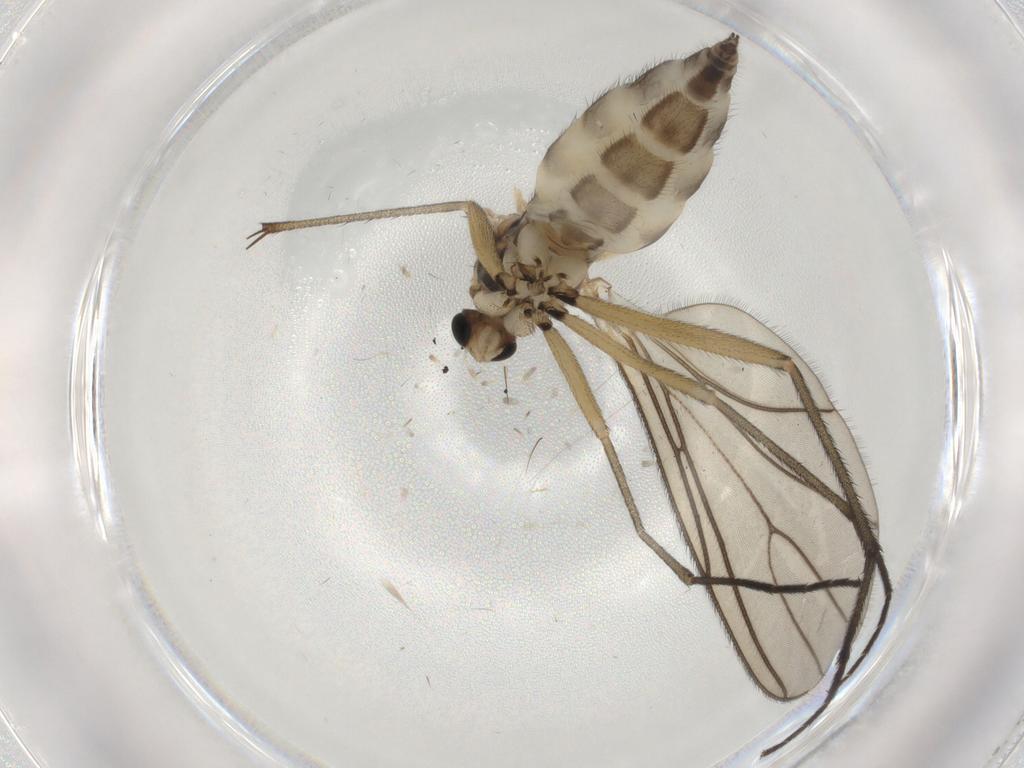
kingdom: Animalia
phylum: Arthropoda
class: Insecta
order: Diptera
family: Sciaridae
